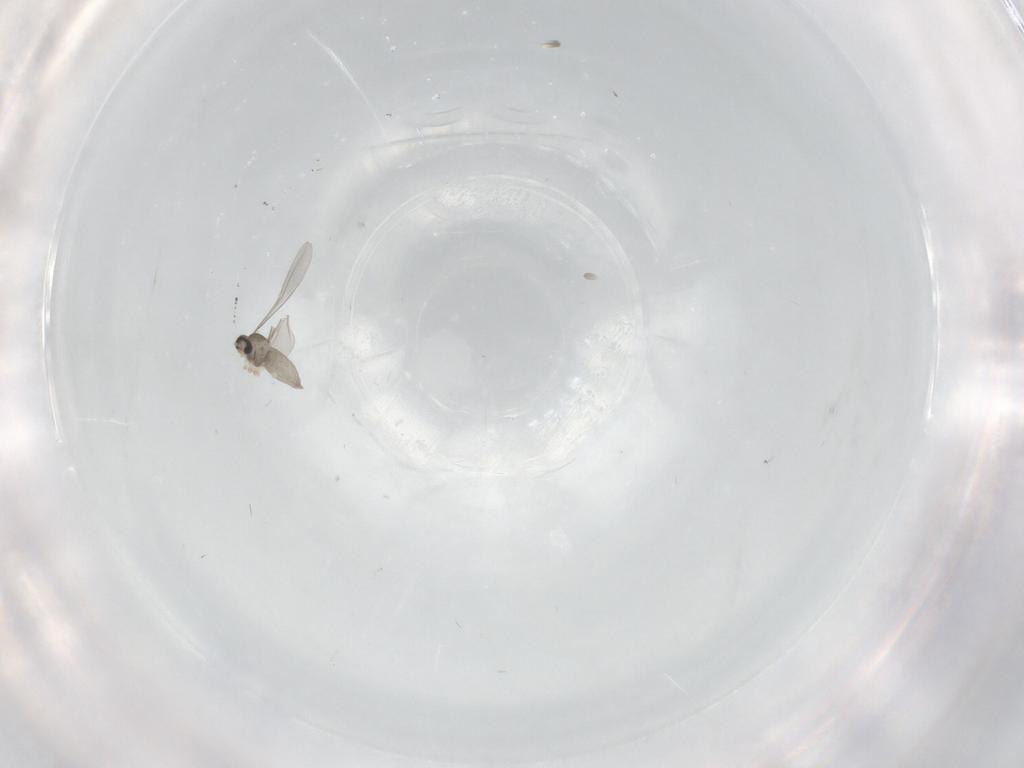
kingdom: Animalia
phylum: Arthropoda
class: Insecta
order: Diptera
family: Cecidomyiidae
